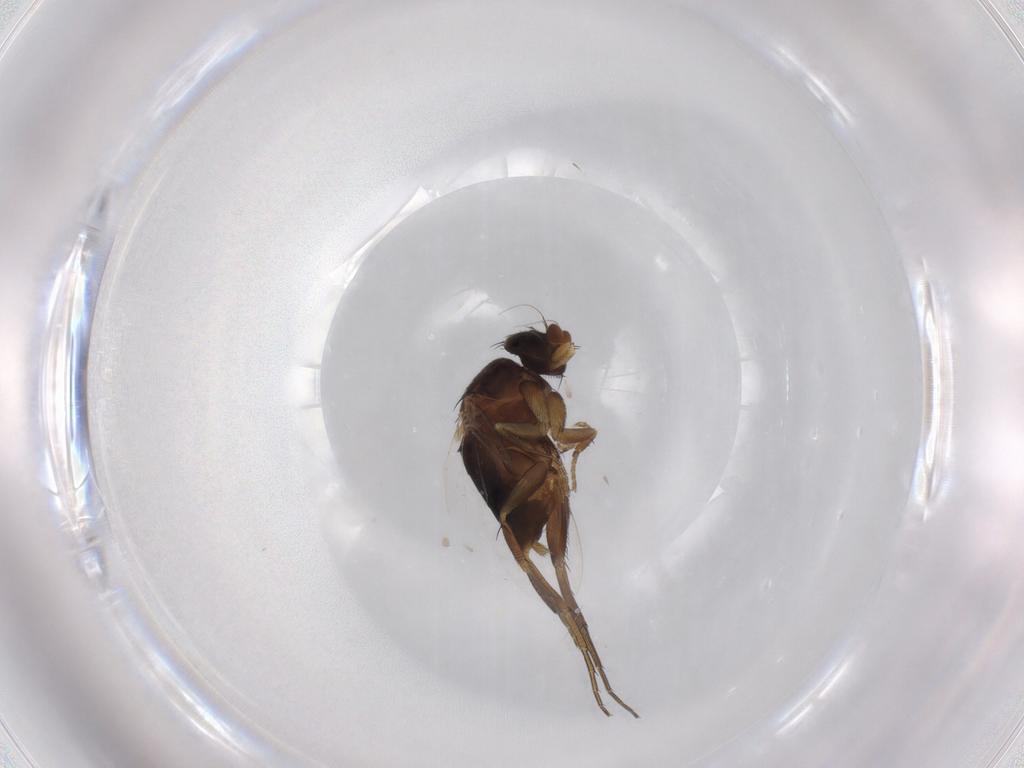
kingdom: Animalia
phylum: Arthropoda
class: Insecta
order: Diptera
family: Phoridae
